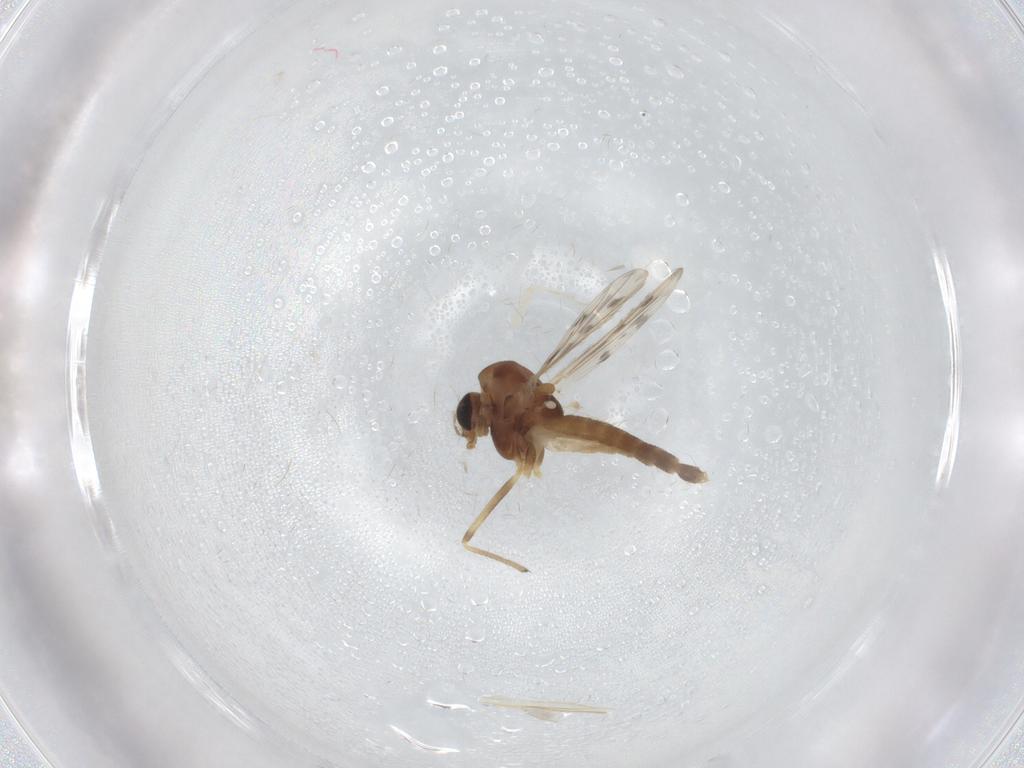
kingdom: Animalia
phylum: Arthropoda
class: Insecta
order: Diptera
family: Chironomidae
